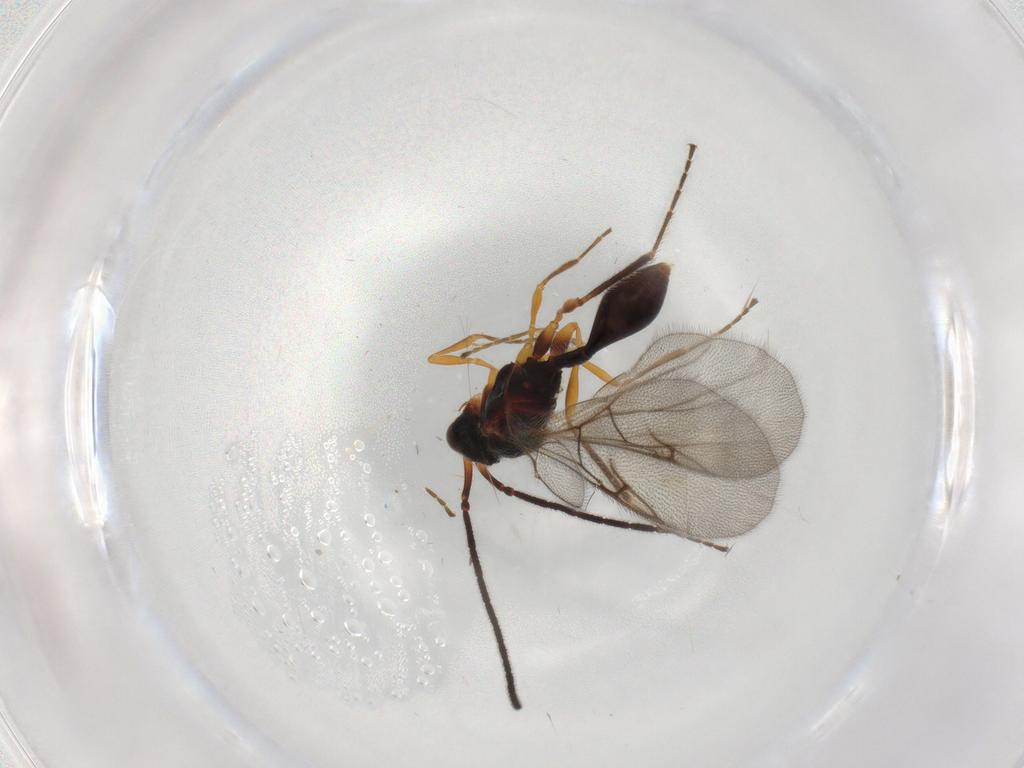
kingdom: Animalia
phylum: Arthropoda
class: Insecta
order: Hymenoptera
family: Diapriidae
